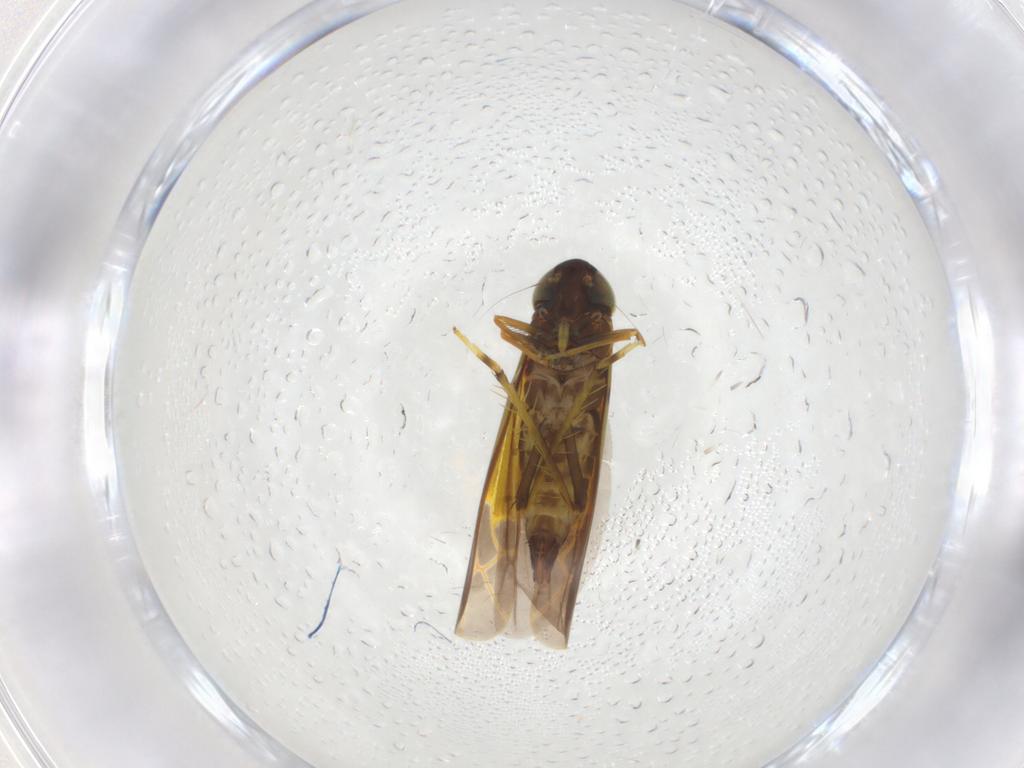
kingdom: Animalia
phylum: Arthropoda
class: Insecta
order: Hemiptera
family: Cicadellidae
